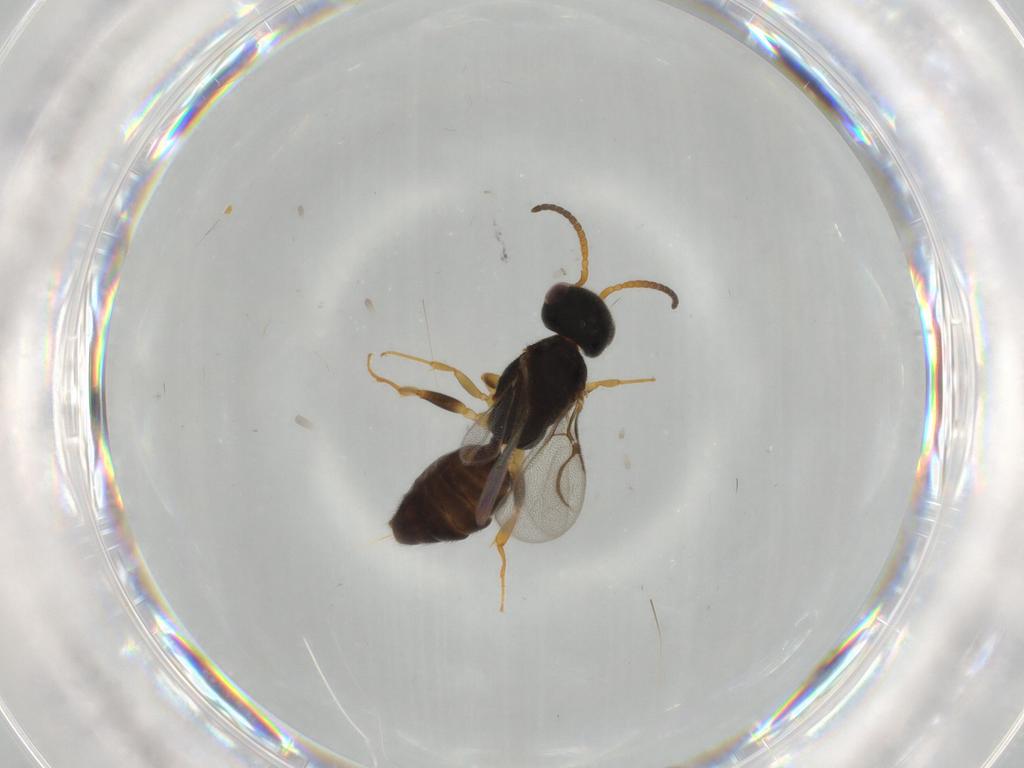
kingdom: Animalia
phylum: Arthropoda
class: Insecta
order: Hymenoptera
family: Bethylidae
